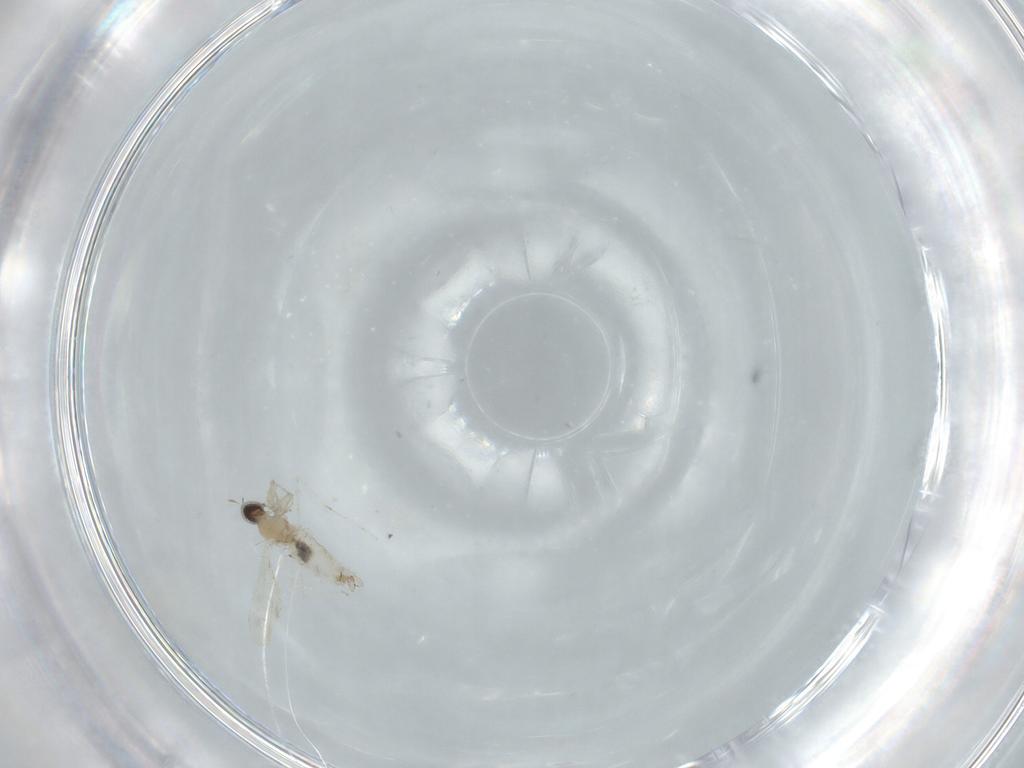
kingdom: Animalia
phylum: Arthropoda
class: Insecta
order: Diptera
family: Cecidomyiidae
